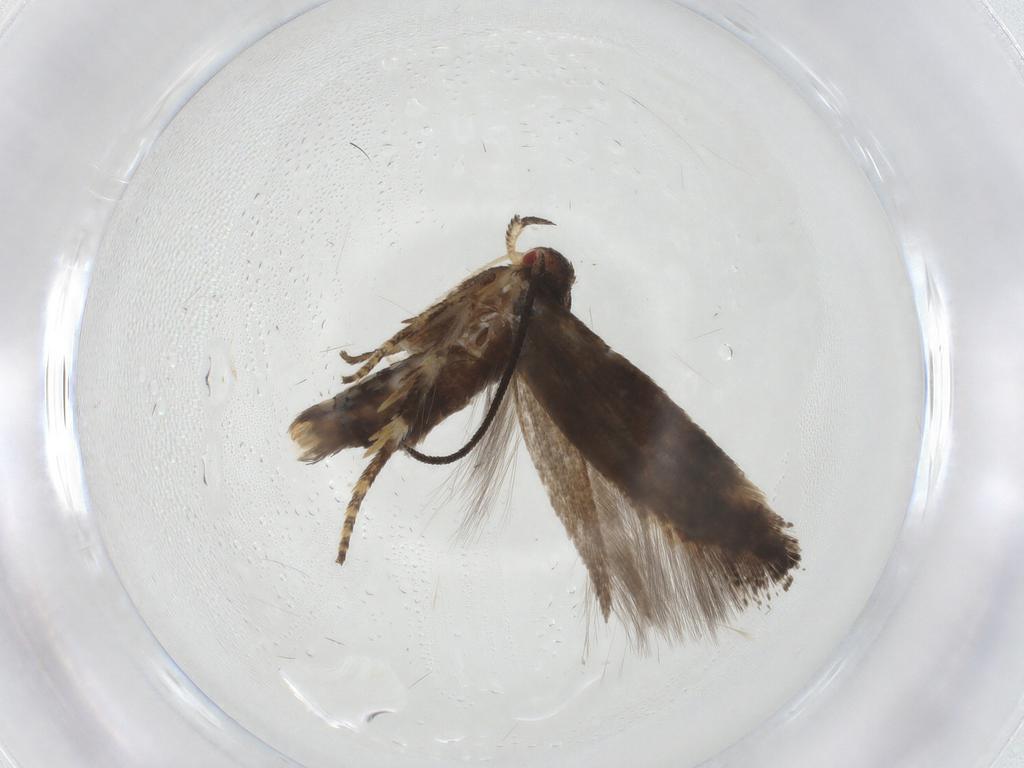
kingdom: Animalia
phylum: Arthropoda
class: Insecta
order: Lepidoptera
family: Momphidae
